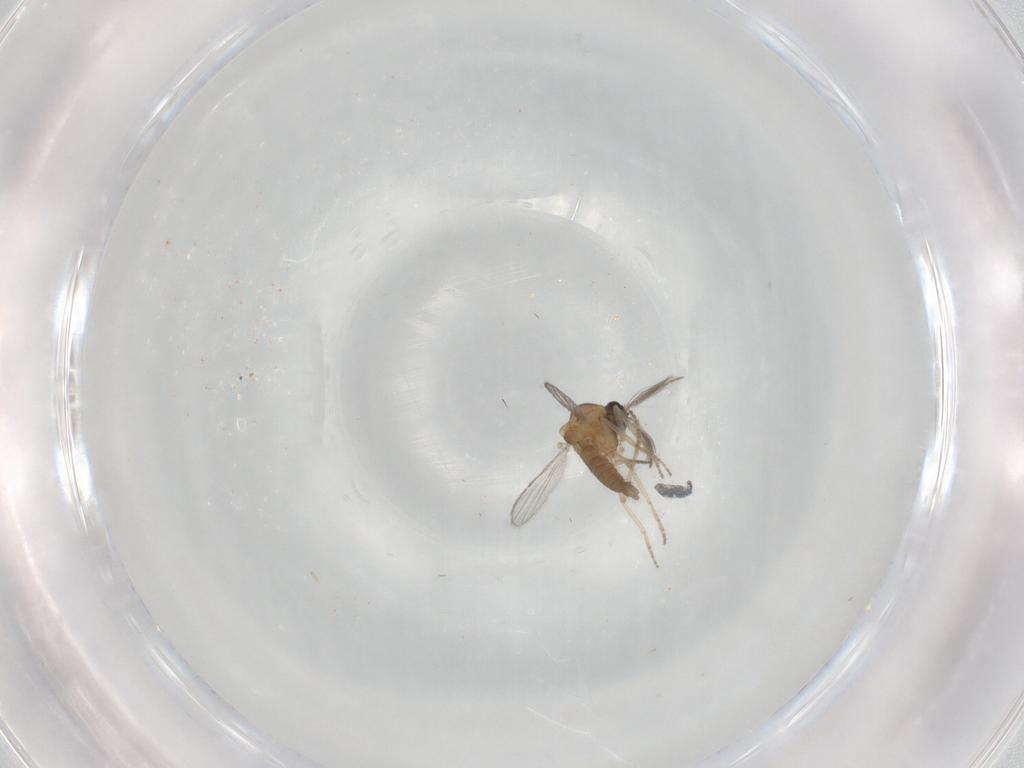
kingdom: Animalia
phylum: Arthropoda
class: Insecta
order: Diptera
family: Ceratopogonidae
